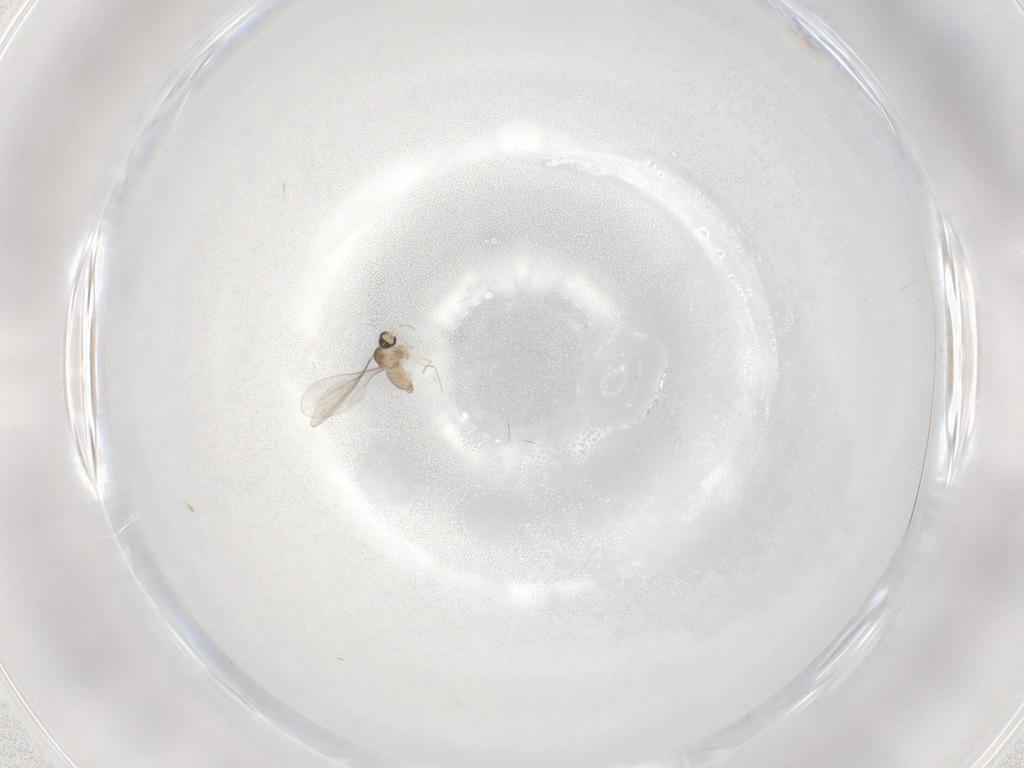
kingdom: Animalia
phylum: Arthropoda
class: Insecta
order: Diptera
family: Cecidomyiidae
